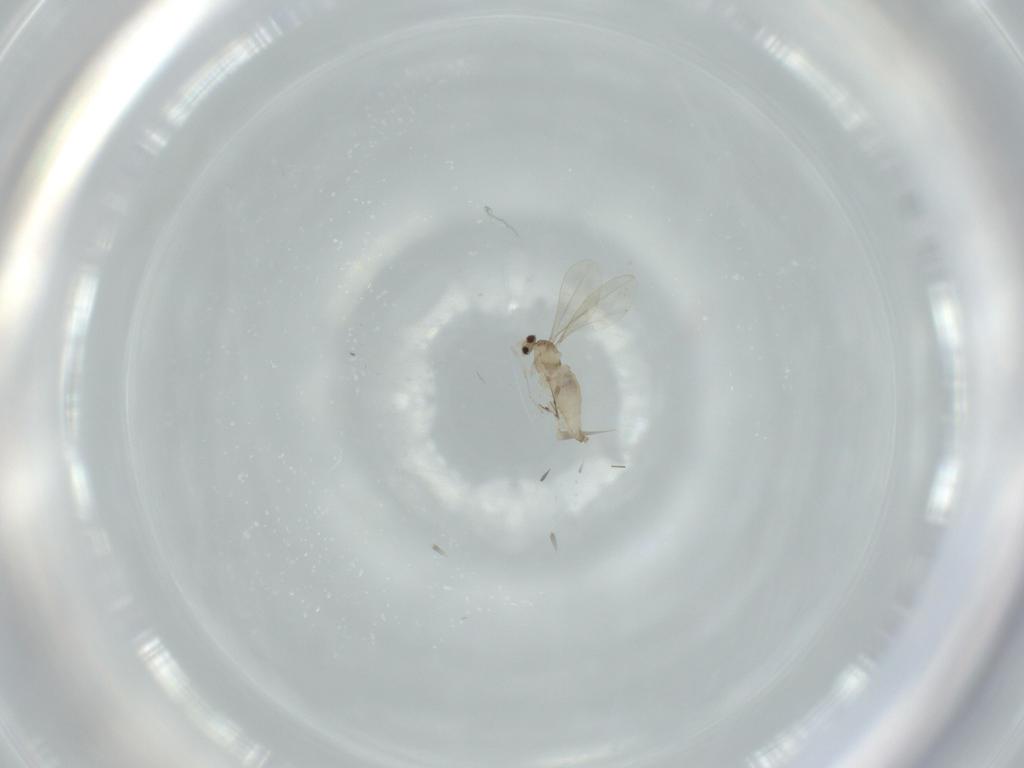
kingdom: Animalia
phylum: Arthropoda
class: Insecta
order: Diptera
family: Cecidomyiidae
